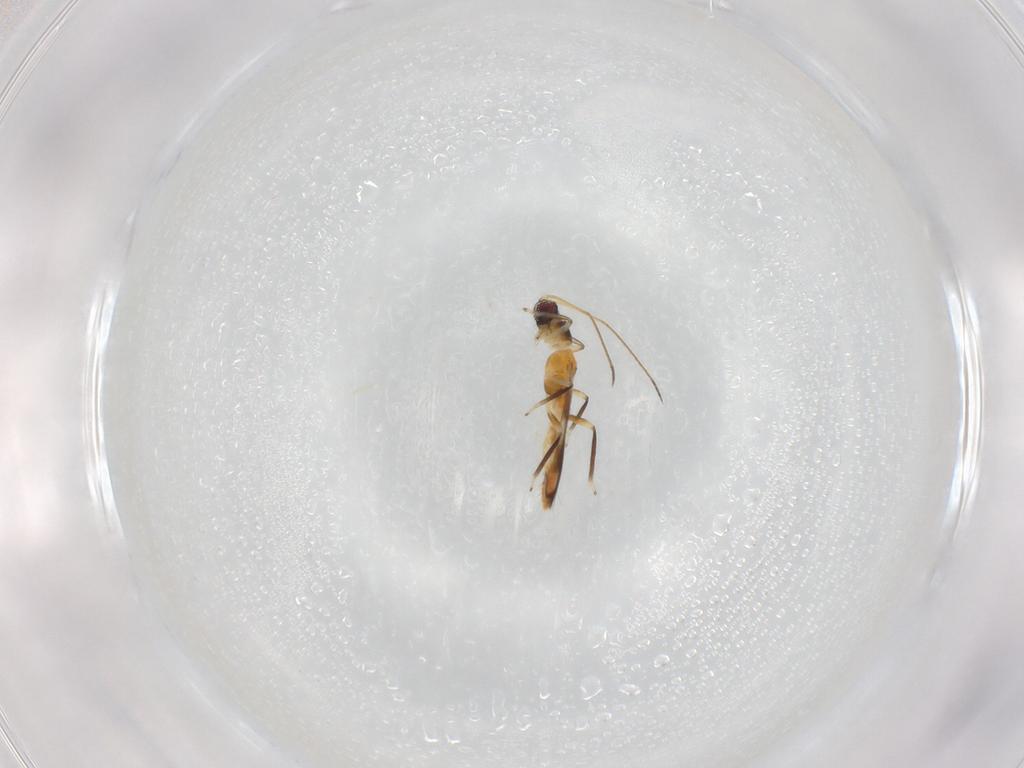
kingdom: Animalia
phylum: Arthropoda
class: Insecta
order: Thysanoptera
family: Aeolothripidae
